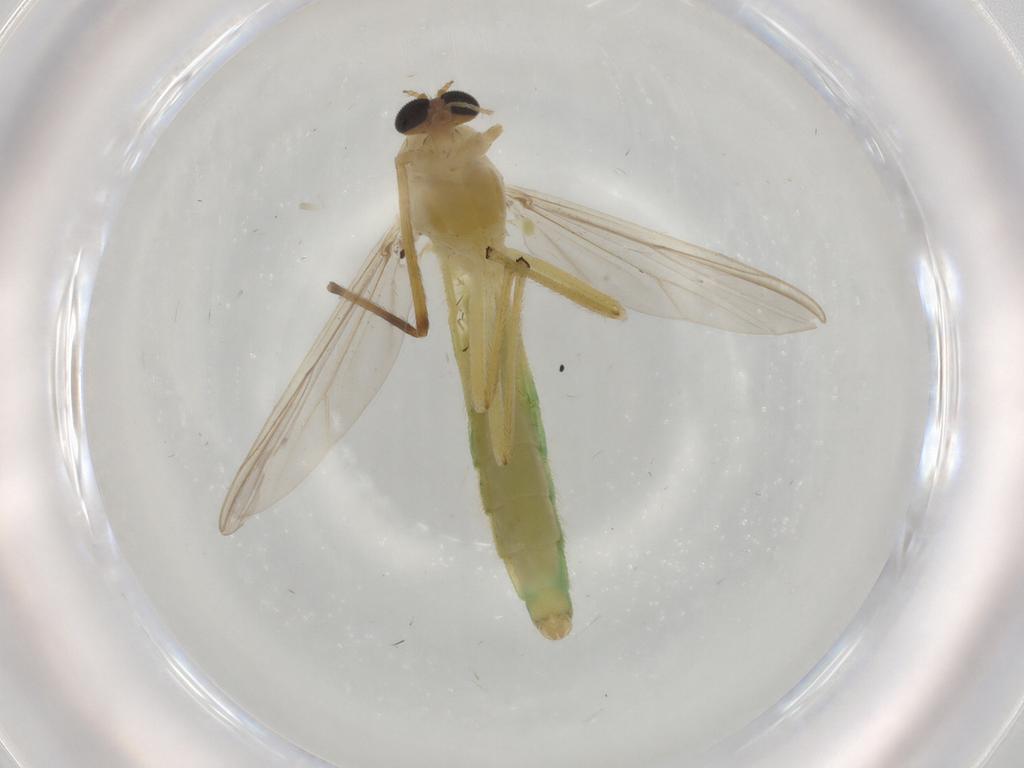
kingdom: Animalia
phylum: Arthropoda
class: Insecta
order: Diptera
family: Chironomidae
